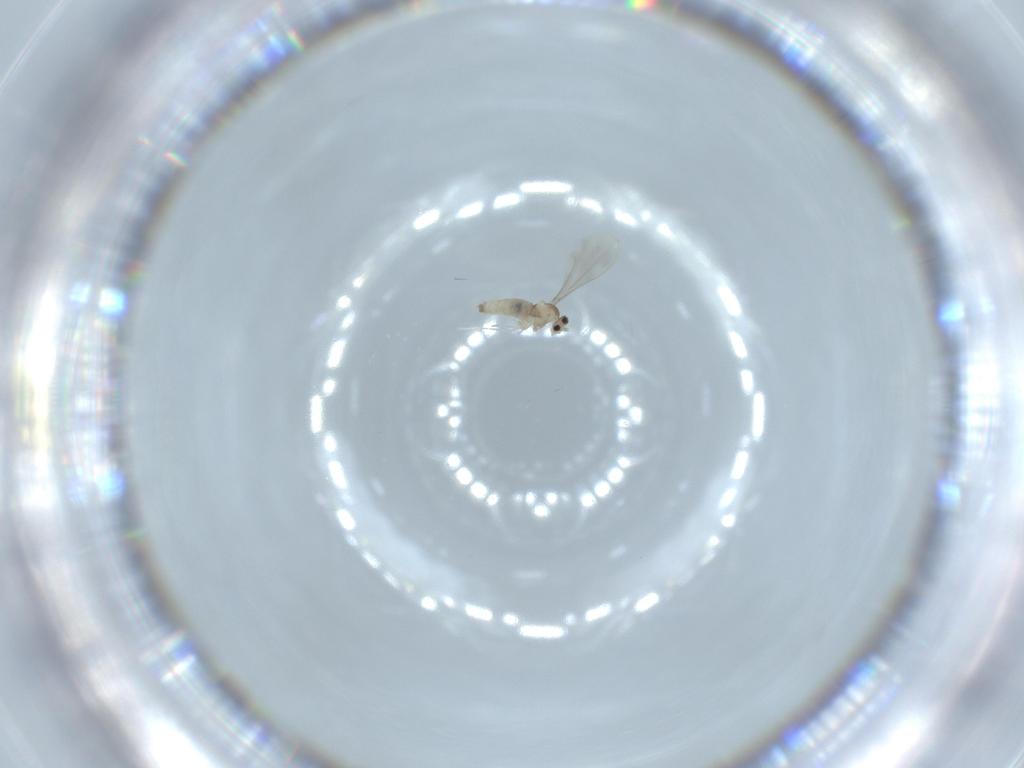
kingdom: Animalia
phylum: Arthropoda
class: Insecta
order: Diptera
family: Cecidomyiidae
